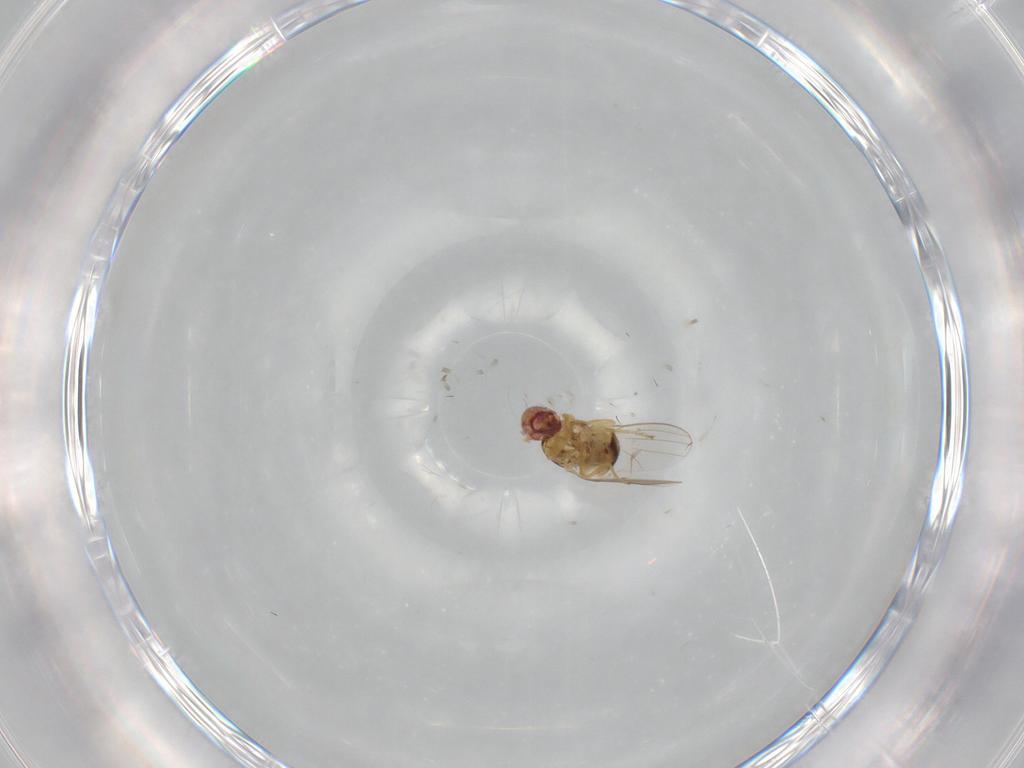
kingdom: Animalia
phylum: Arthropoda
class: Insecta
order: Diptera
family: Chyromyidae
